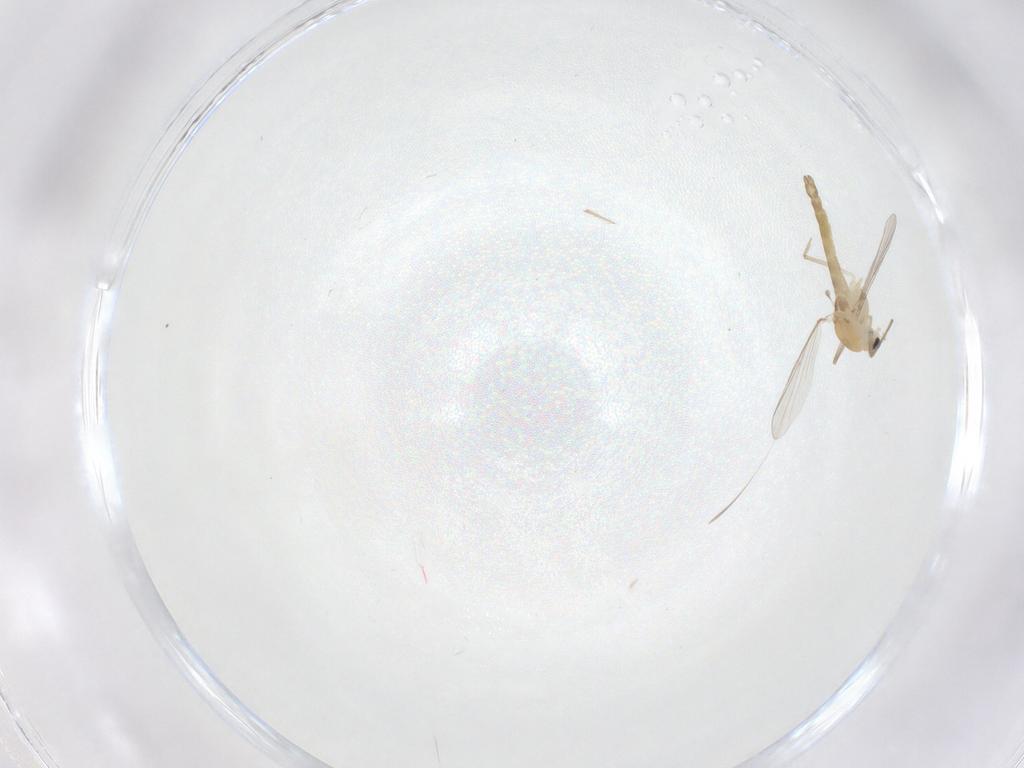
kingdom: Animalia
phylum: Arthropoda
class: Insecta
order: Diptera
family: Chironomidae
